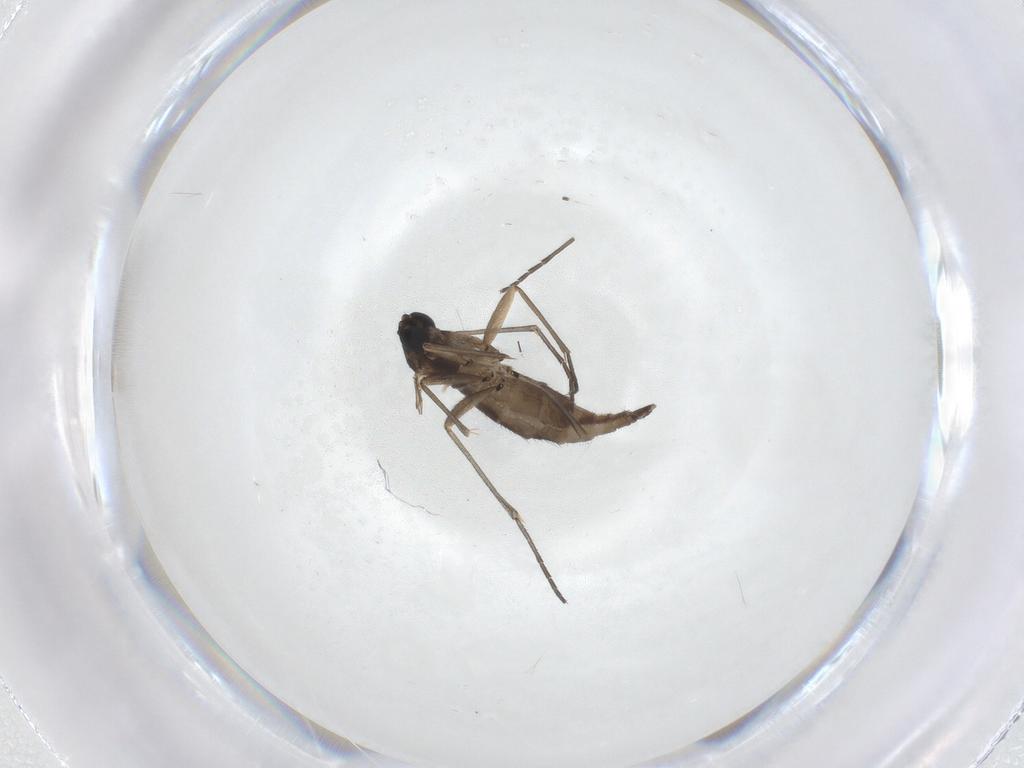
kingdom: Animalia
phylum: Arthropoda
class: Insecta
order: Diptera
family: Sciaridae
